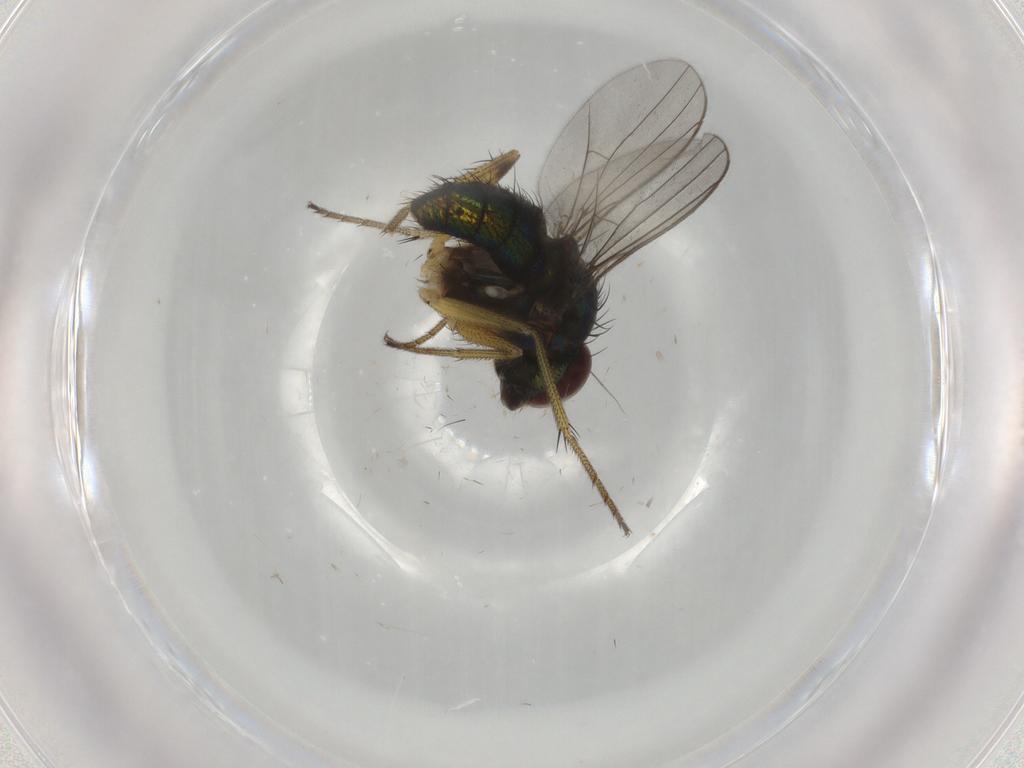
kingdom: Animalia
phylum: Arthropoda
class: Insecta
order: Diptera
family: Dolichopodidae
